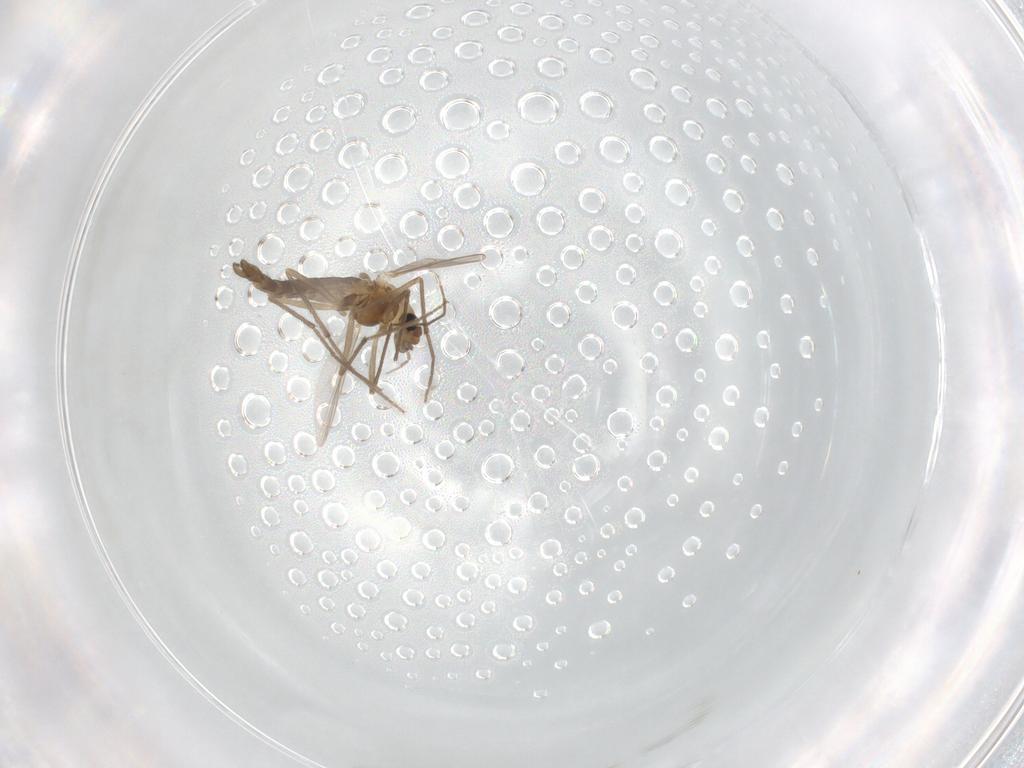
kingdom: Animalia
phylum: Arthropoda
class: Insecta
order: Diptera
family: Chironomidae
